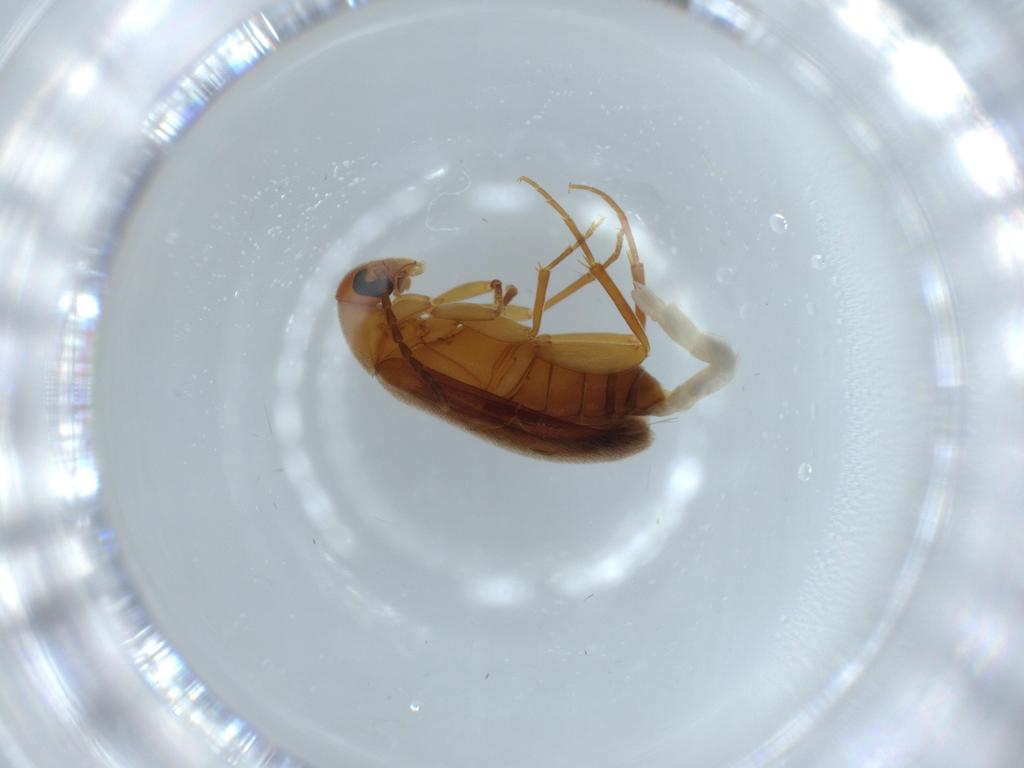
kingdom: Animalia
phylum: Arthropoda
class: Insecta
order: Coleoptera
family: Scraptiidae
